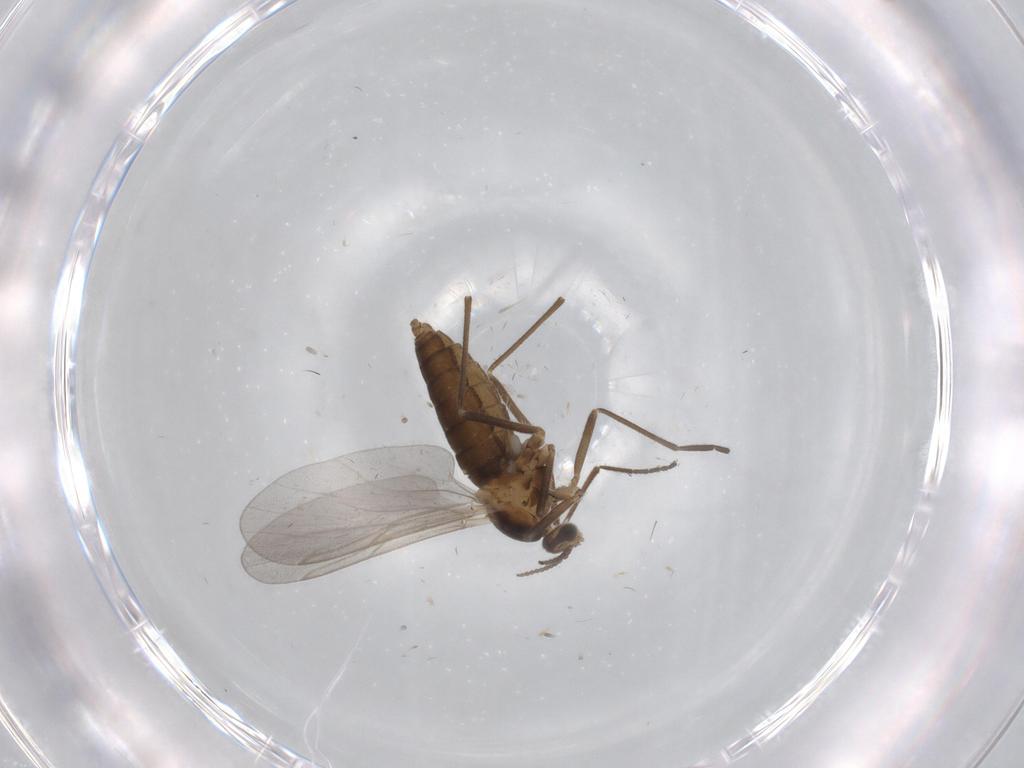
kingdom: Animalia
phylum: Arthropoda
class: Insecta
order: Diptera
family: Cecidomyiidae
